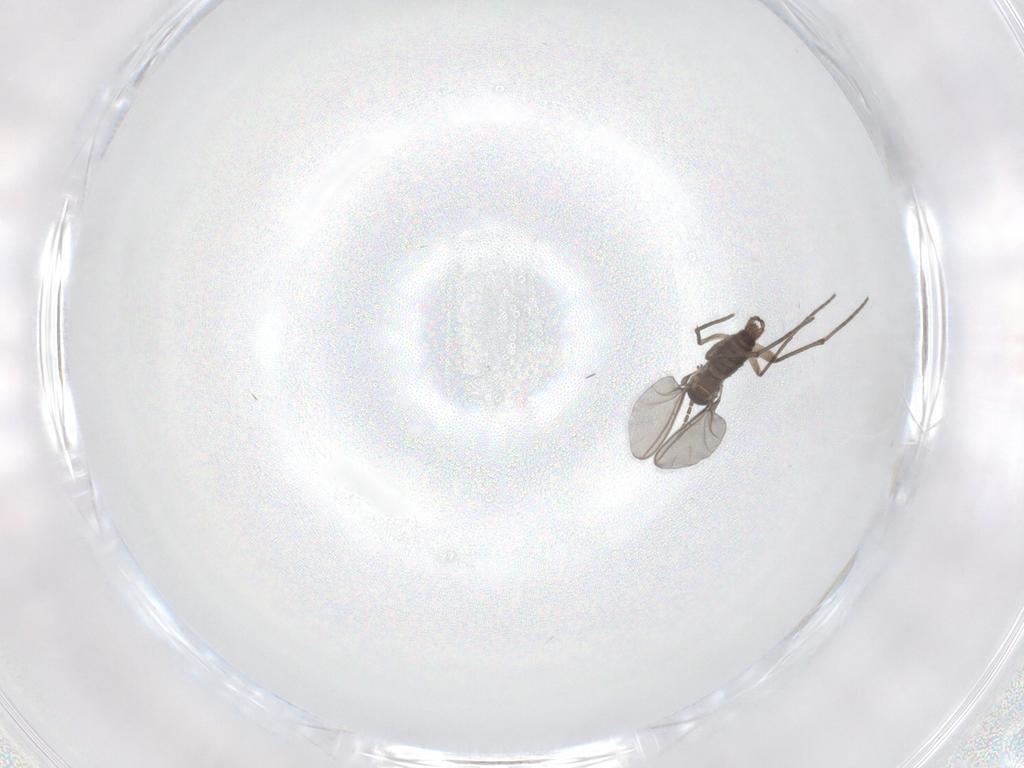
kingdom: Animalia
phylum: Arthropoda
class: Insecta
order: Diptera
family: Sciaridae
